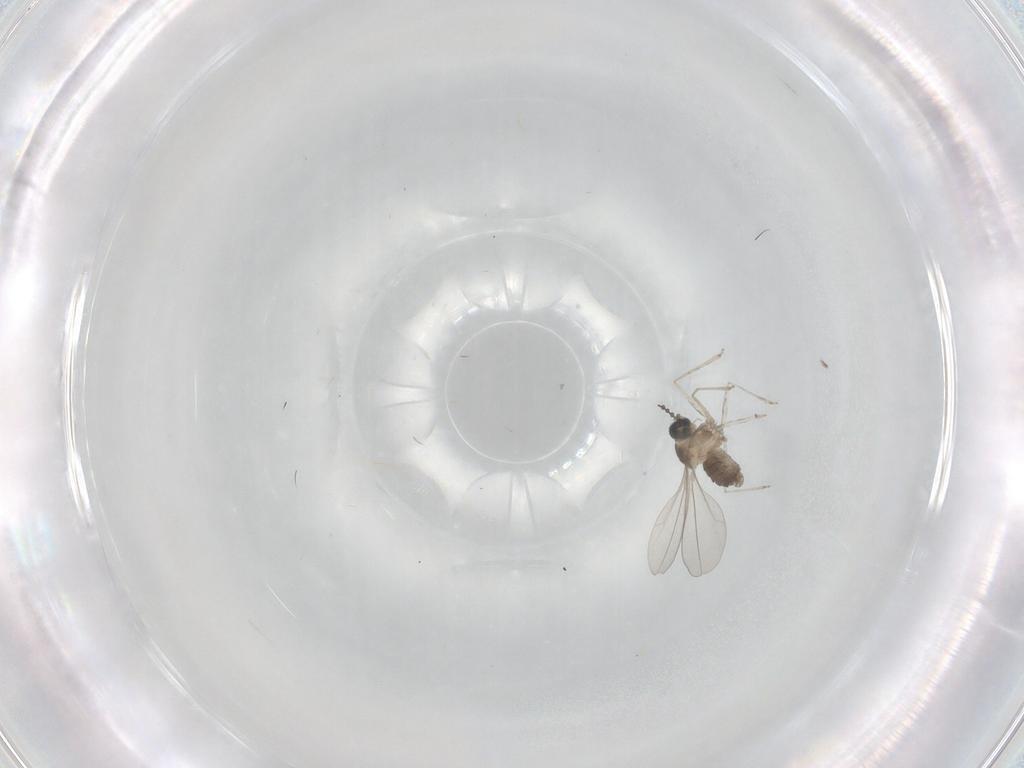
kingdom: Animalia
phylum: Arthropoda
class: Insecta
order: Diptera
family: Cecidomyiidae
